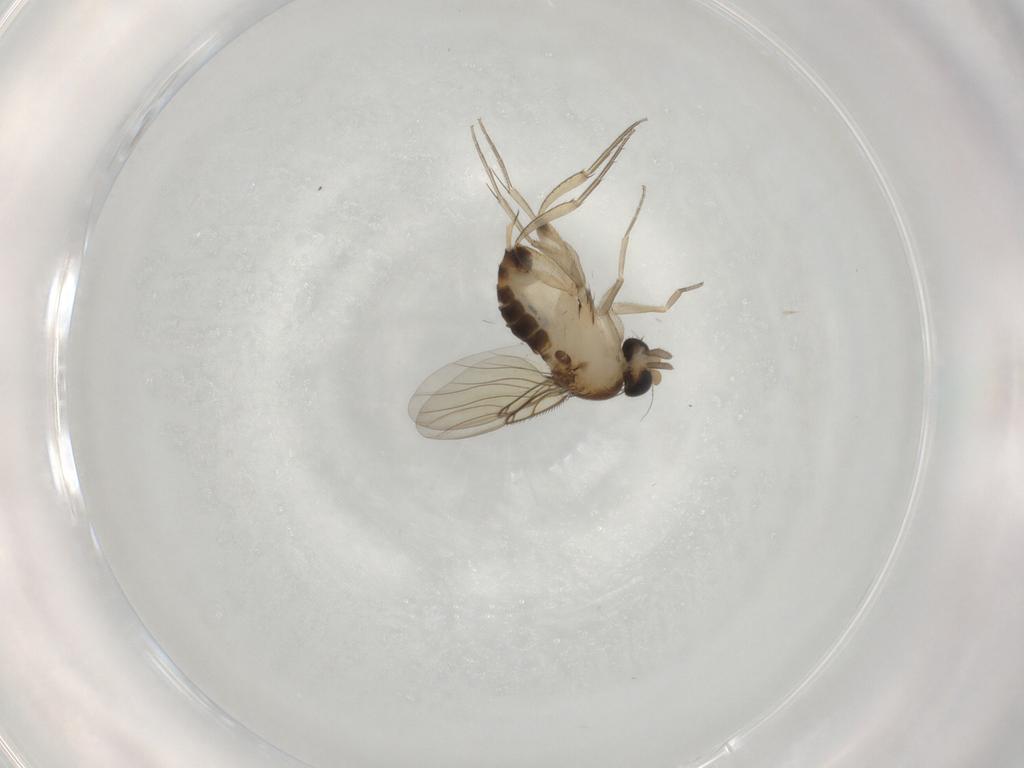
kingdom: Animalia
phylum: Arthropoda
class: Insecta
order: Diptera
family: Phoridae
